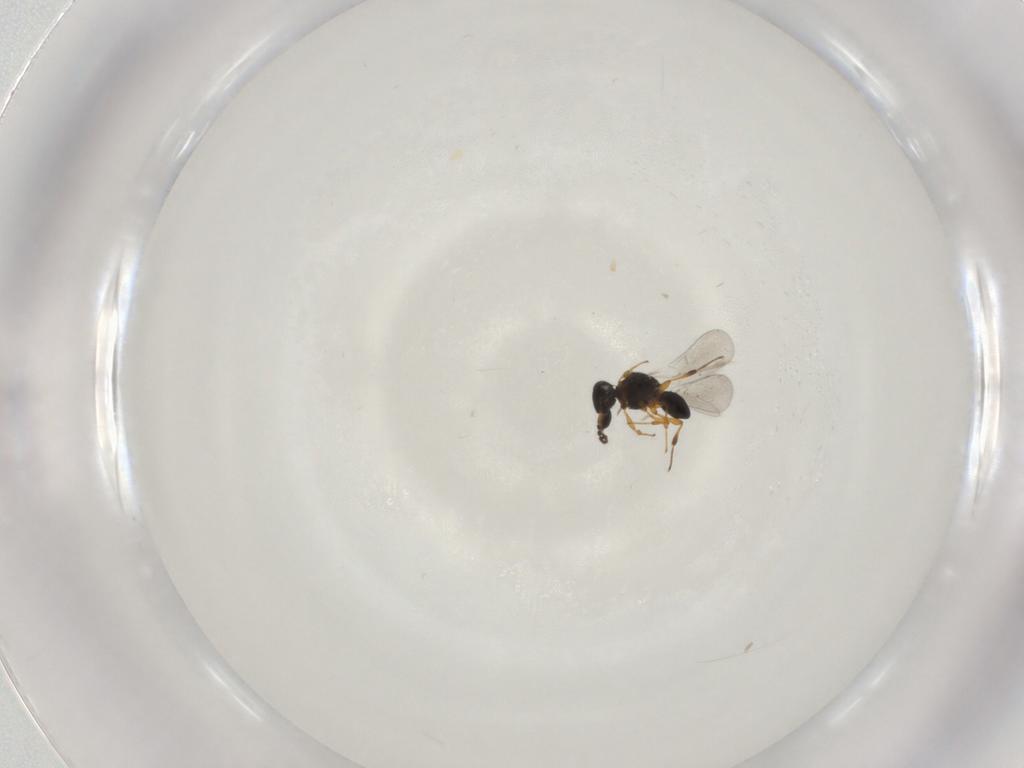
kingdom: Animalia
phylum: Arthropoda
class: Insecta
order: Hymenoptera
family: Platygastridae
